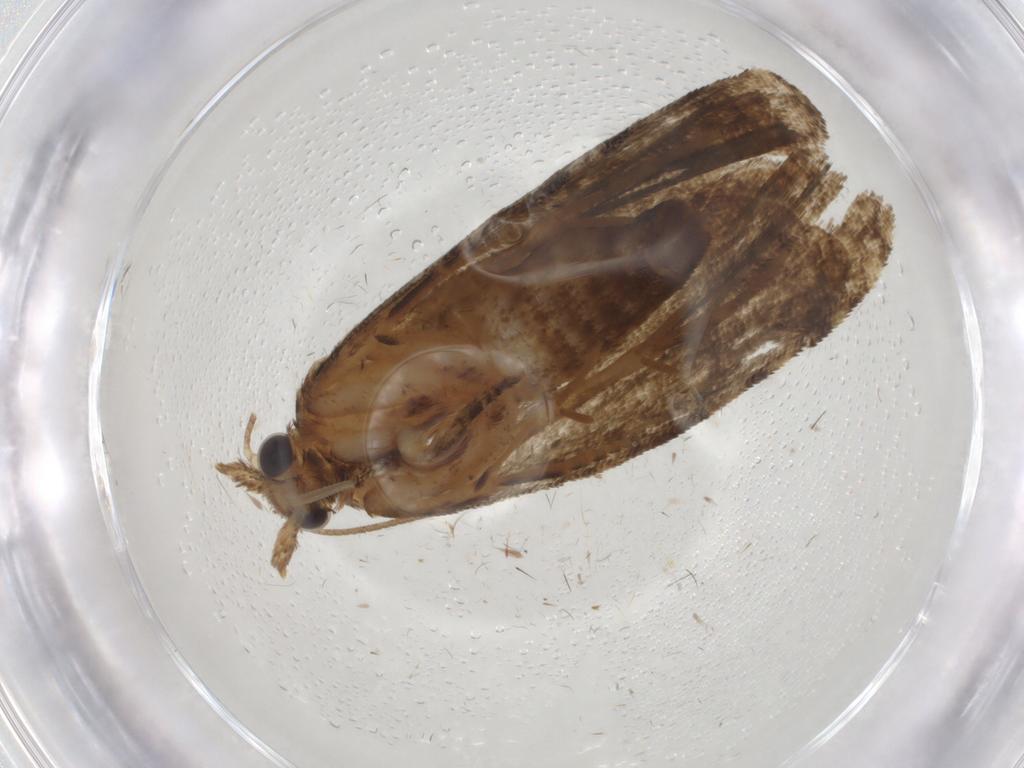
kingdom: Animalia
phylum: Arthropoda
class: Insecta
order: Lepidoptera
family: Tortricidae
